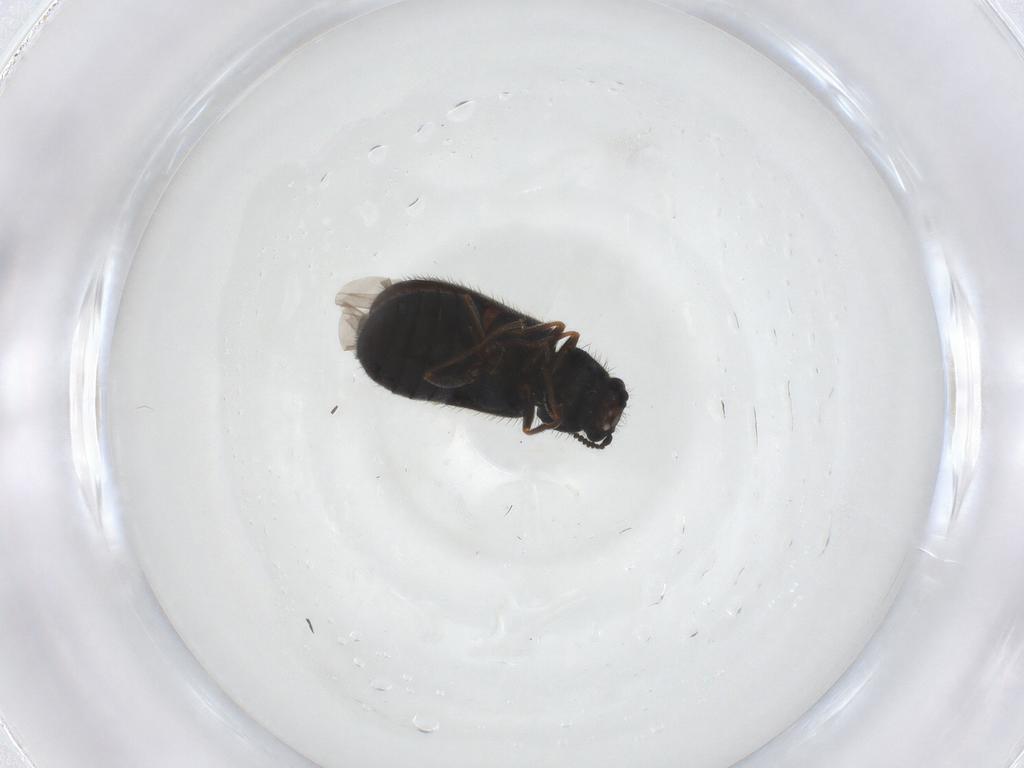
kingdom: Animalia
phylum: Arthropoda
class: Insecta
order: Coleoptera
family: Melyridae
